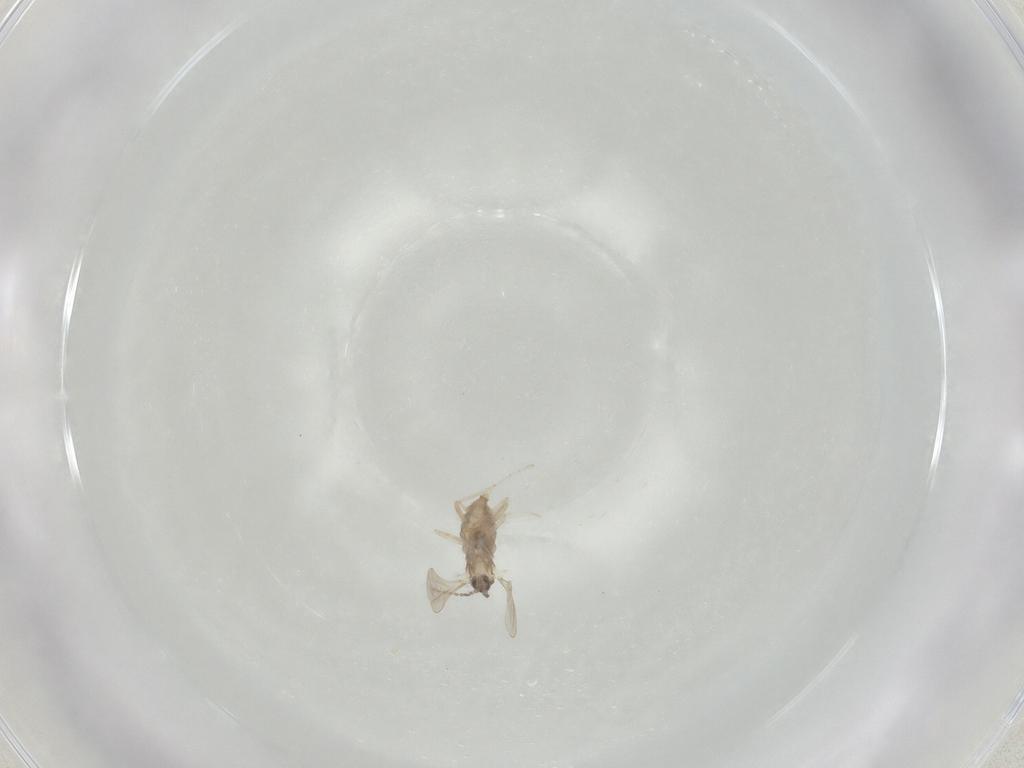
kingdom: Animalia
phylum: Arthropoda
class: Insecta
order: Diptera
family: Cecidomyiidae
